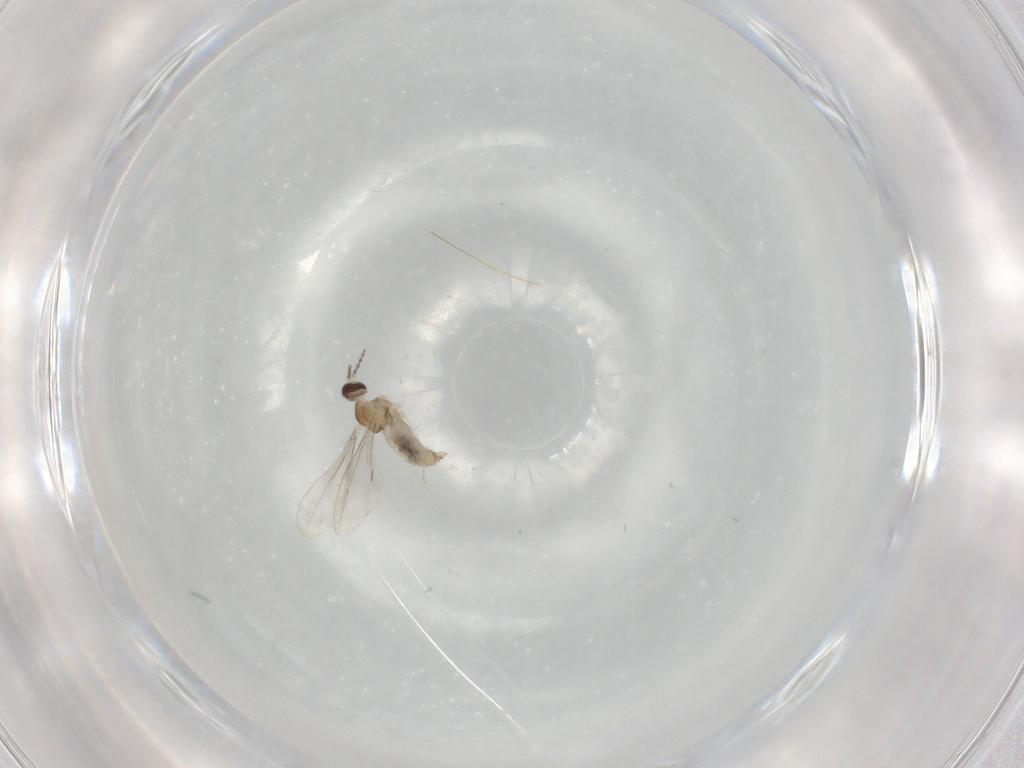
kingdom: Animalia
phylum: Arthropoda
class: Insecta
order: Diptera
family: Cecidomyiidae
